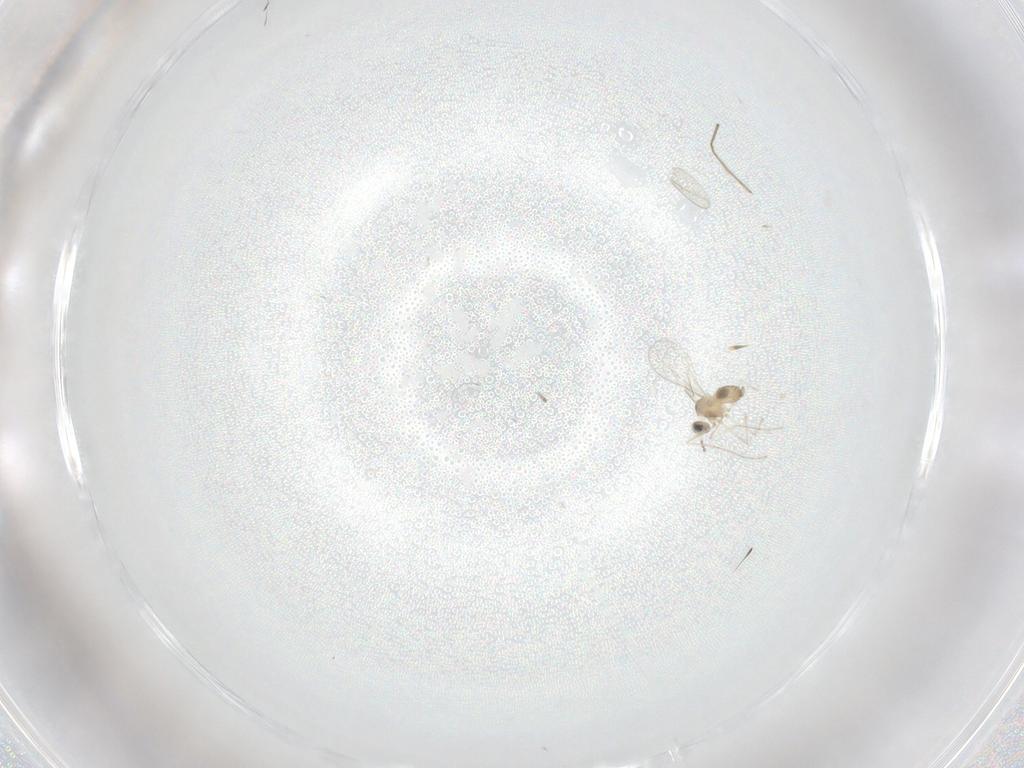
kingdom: Animalia
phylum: Arthropoda
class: Insecta
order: Diptera
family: Cecidomyiidae
